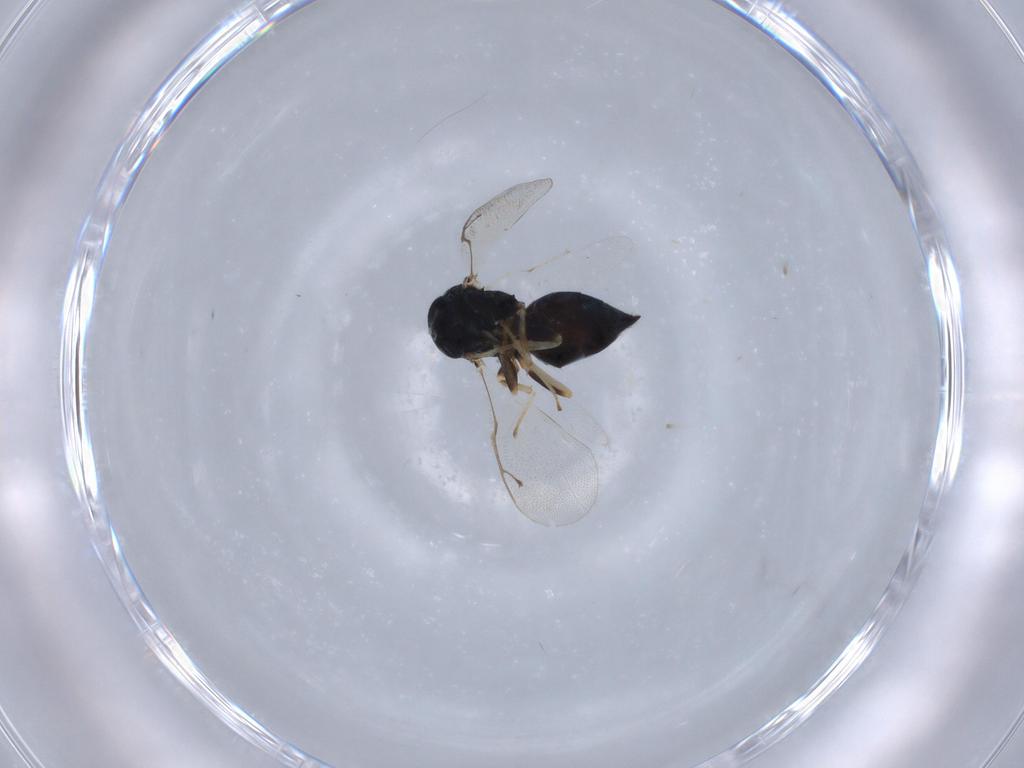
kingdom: Animalia
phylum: Arthropoda
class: Insecta
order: Hymenoptera
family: Pteromalidae
